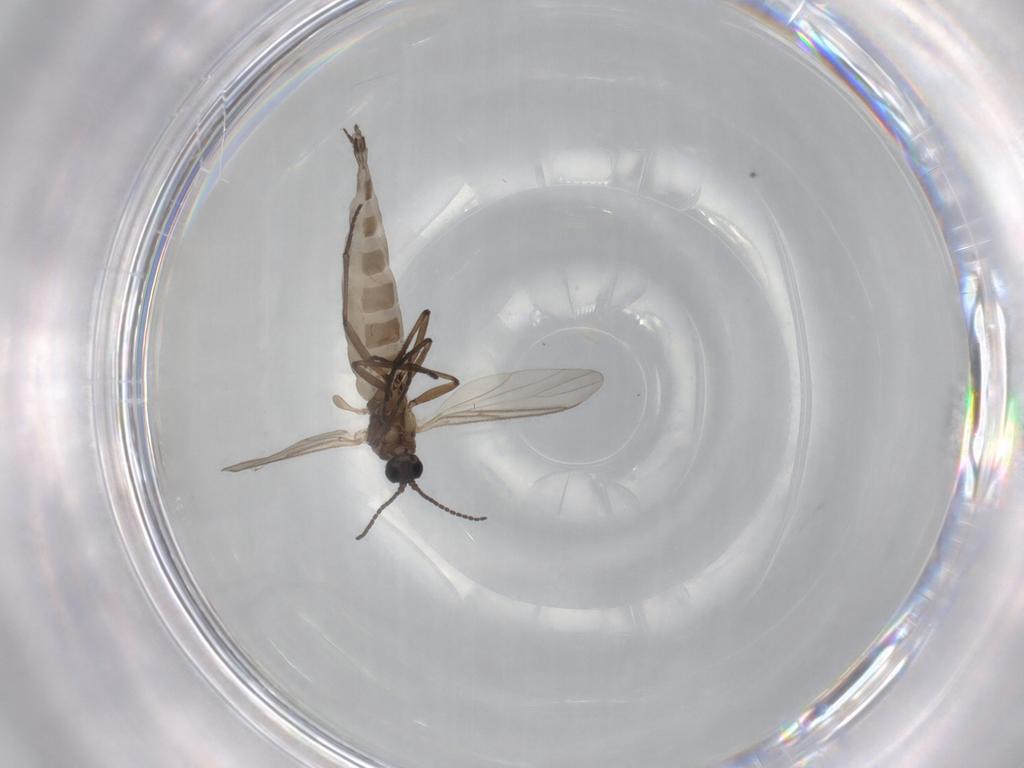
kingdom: Animalia
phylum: Arthropoda
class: Insecta
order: Diptera
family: Sciaridae
